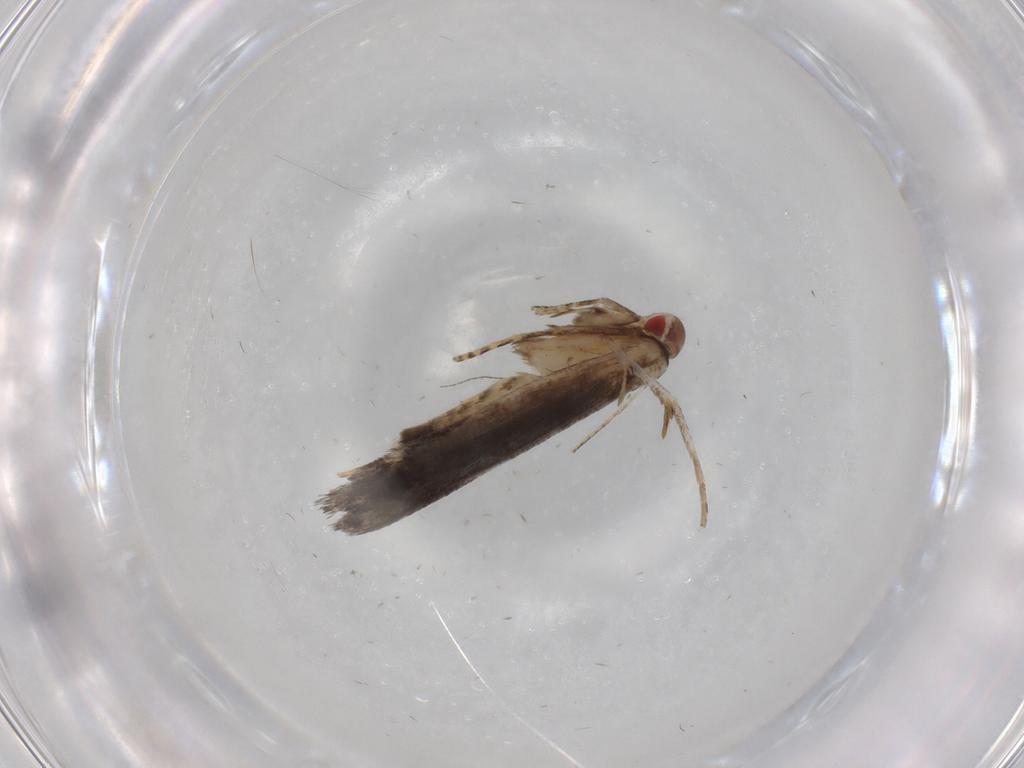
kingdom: Animalia
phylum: Arthropoda
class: Insecta
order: Lepidoptera
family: Gelechiidae
